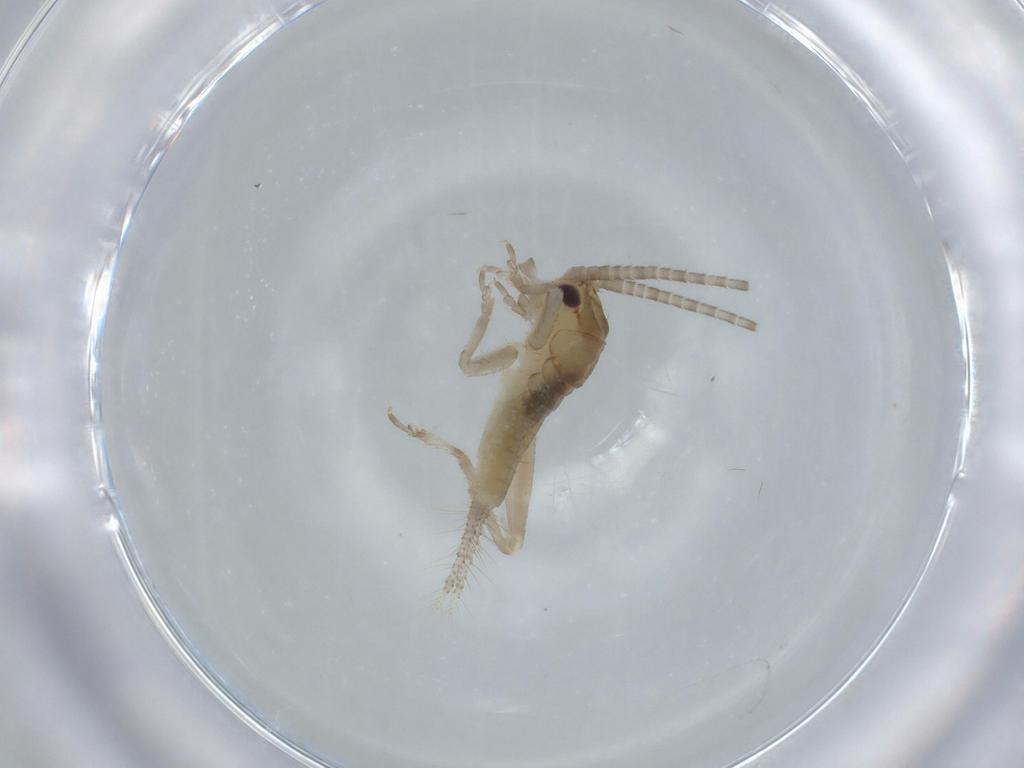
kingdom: Animalia
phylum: Arthropoda
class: Insecta
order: Orthoptera
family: Gryllidae
